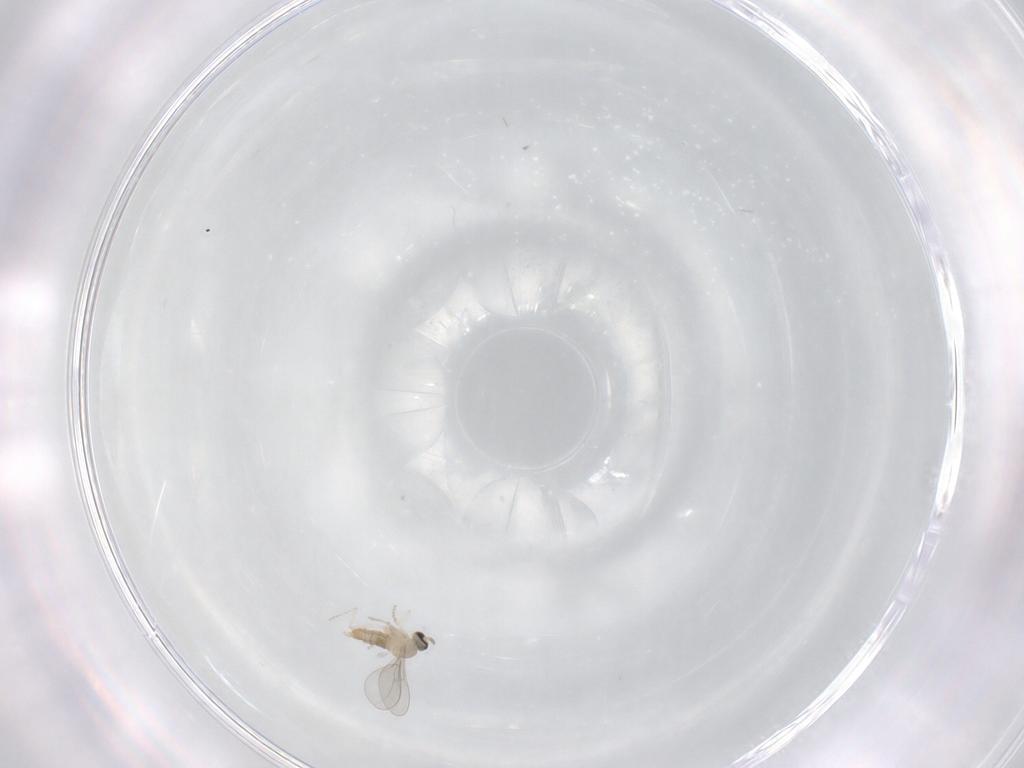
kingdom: Animalia
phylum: Arthropoda
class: Insecta
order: Diptera
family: Cecidomyiidae
